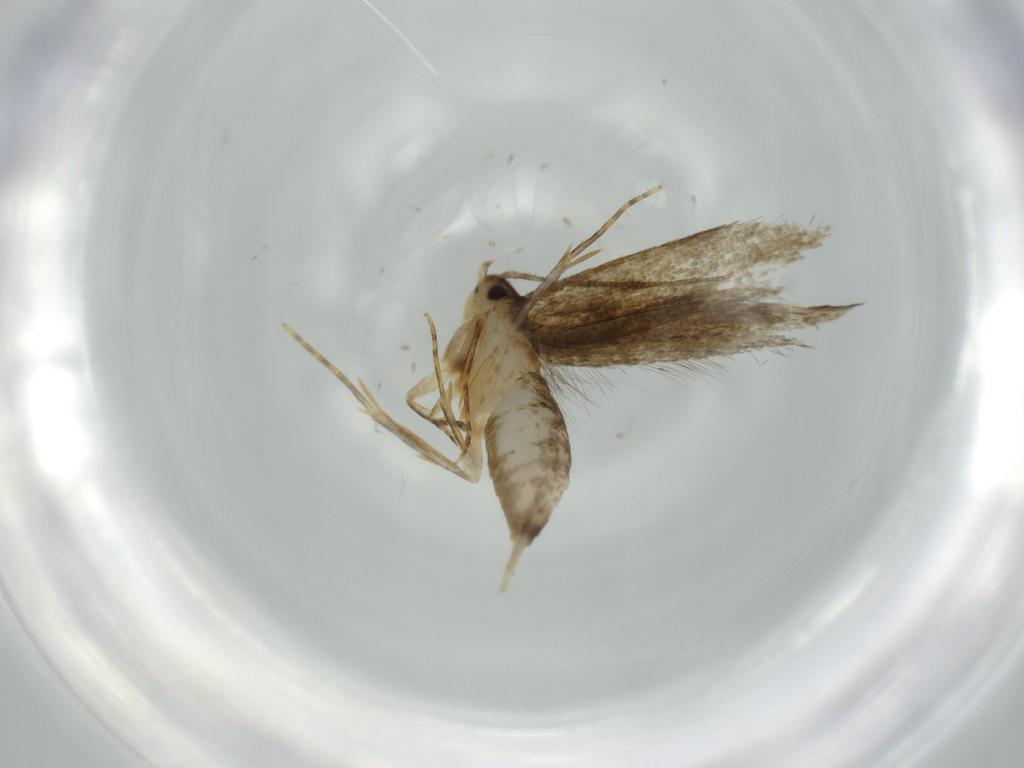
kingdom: Animalia
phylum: Arthropoda
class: Insecta
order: Lepidoptera
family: Tineidae
